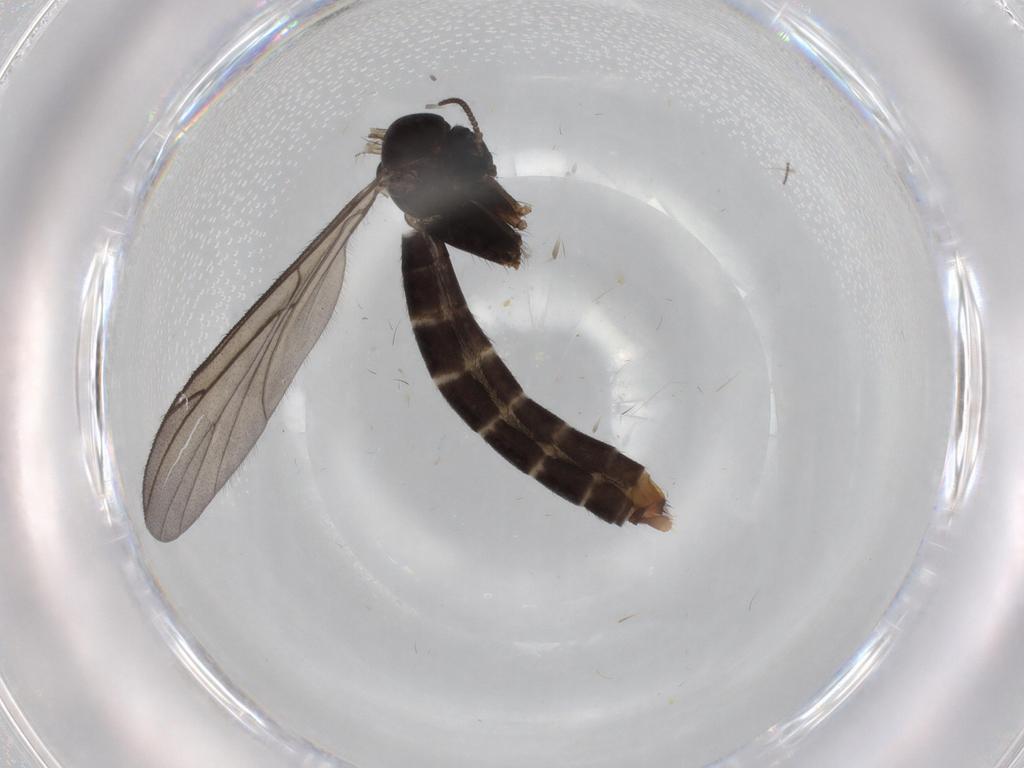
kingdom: Animalia
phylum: Arthropoda
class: Insecta
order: Diptera
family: Ditomyiidae
